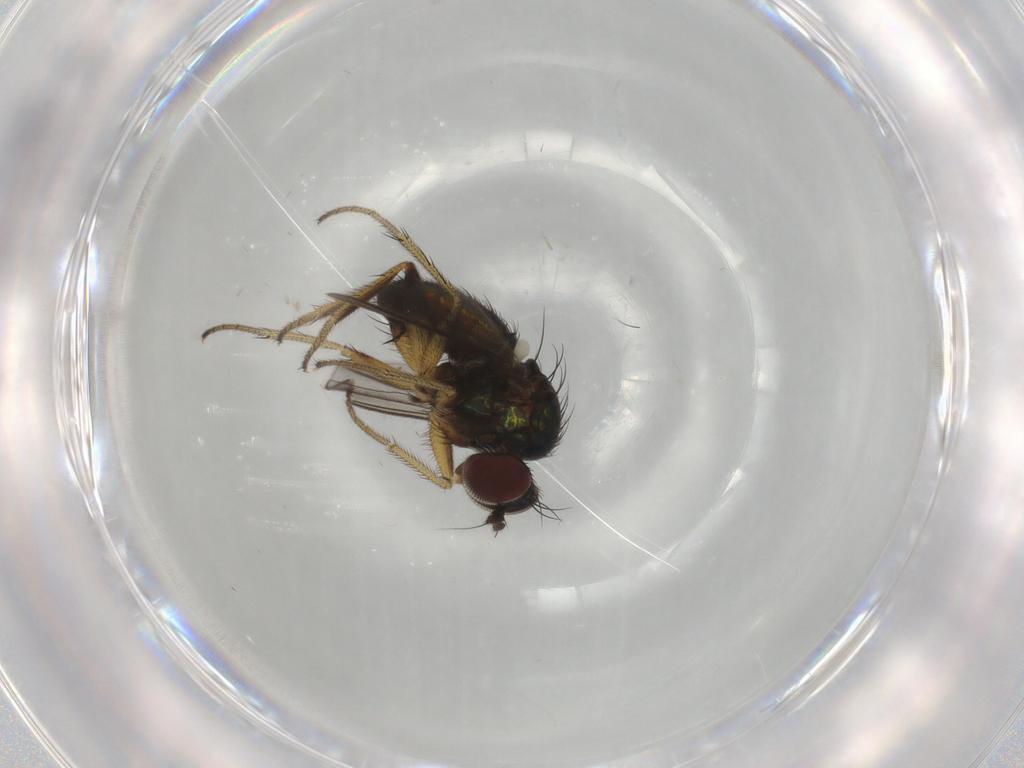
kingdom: Animalia
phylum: Arthropoda
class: Insecta
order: Diptera
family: Dolichopodidae
